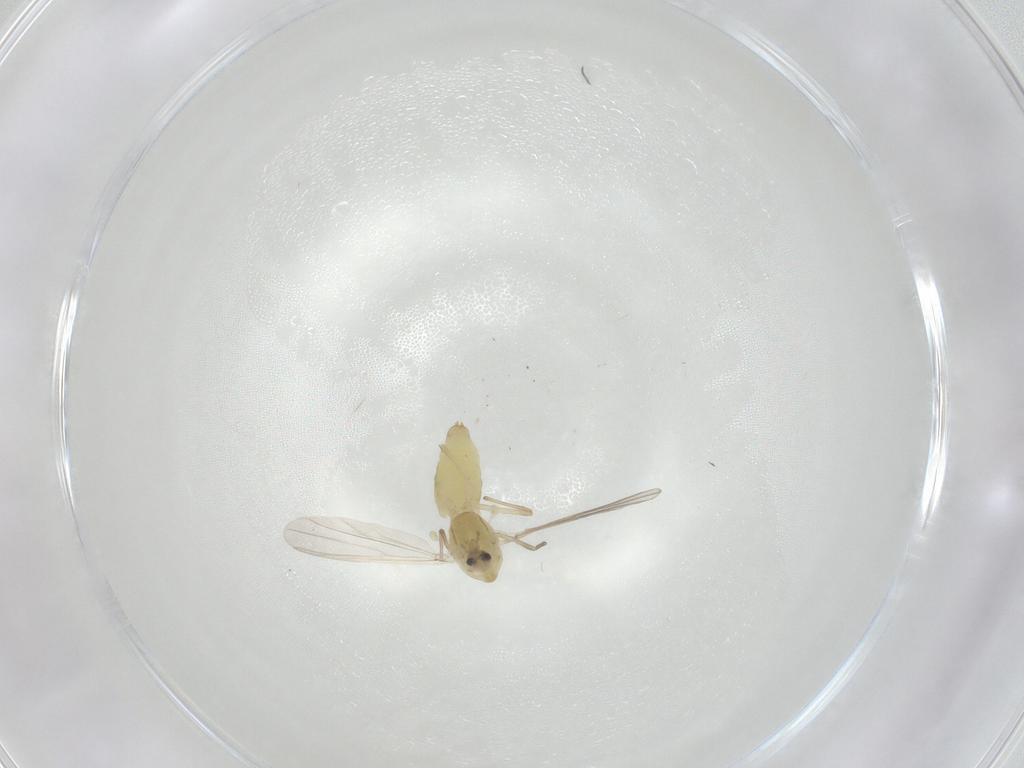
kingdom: Animalia
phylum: Arthropoda
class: Insecta
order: Diptera
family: Chironomidae
